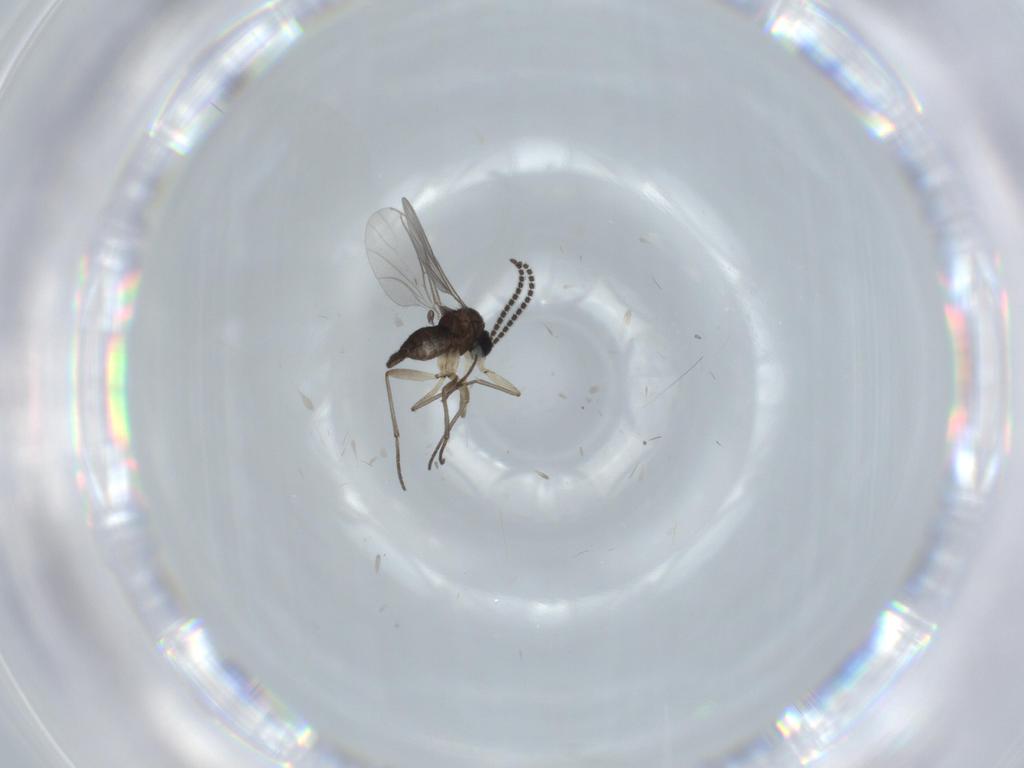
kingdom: Animalia
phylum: Arthropoda
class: Insecta
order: Diptera
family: Sciaridae
